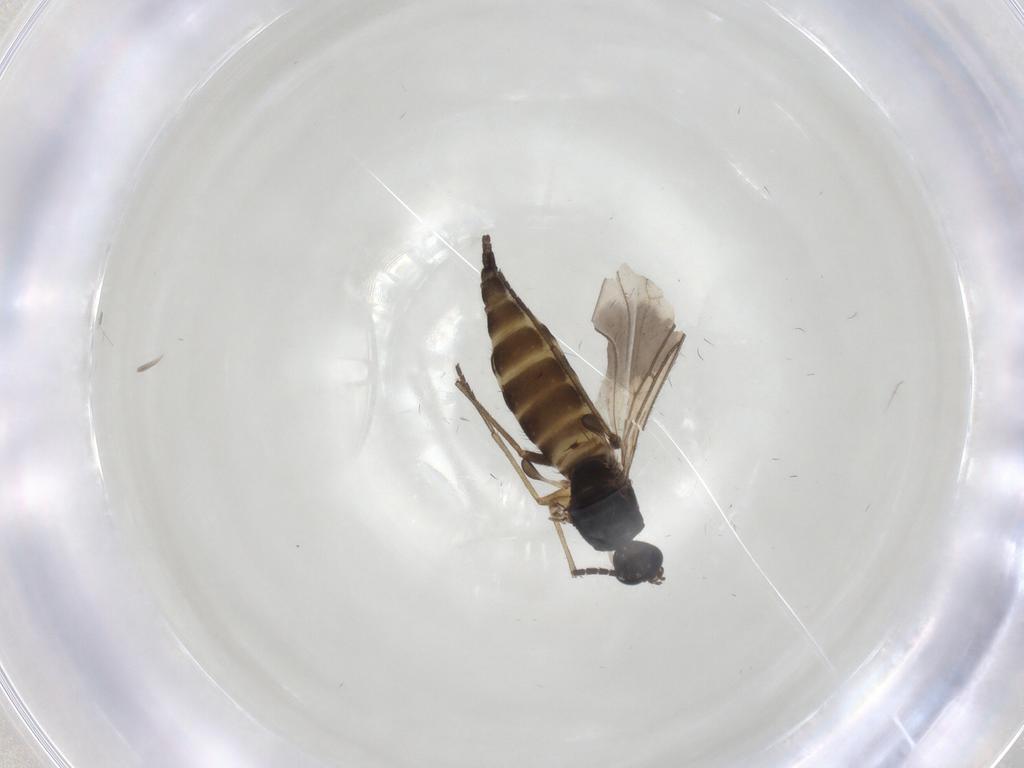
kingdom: Animalia
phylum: Arthropoda
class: Insecta
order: Diptera
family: Sciaridae
